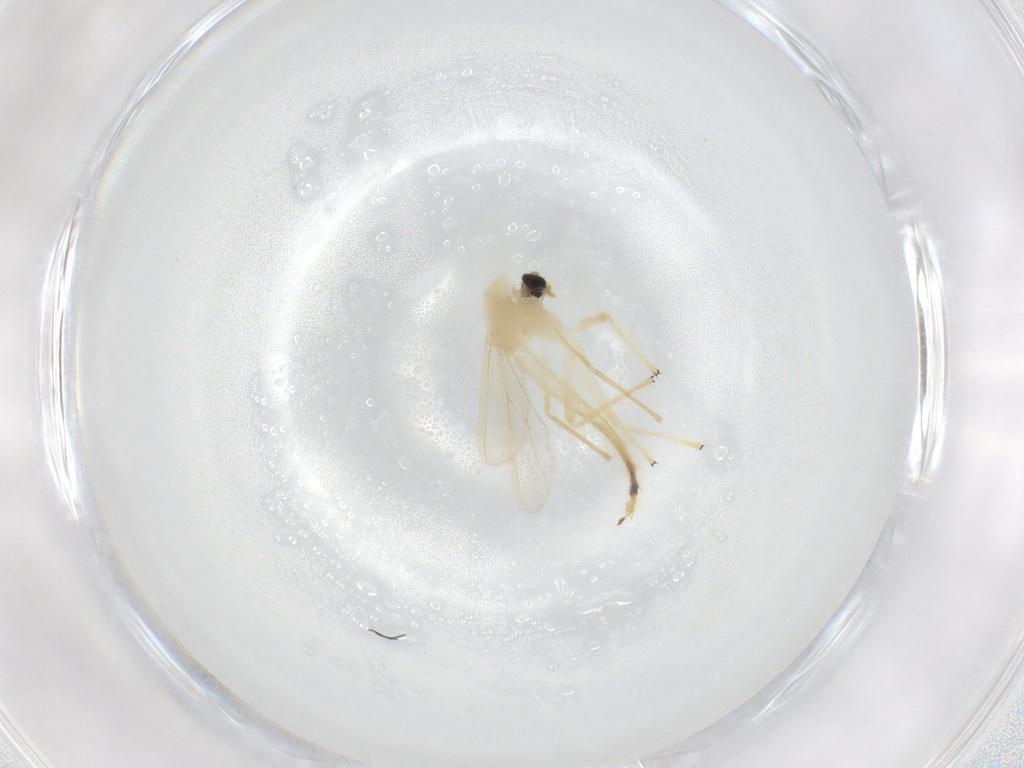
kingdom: Animalia
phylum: Arthropoda
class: Insecta
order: Diptera
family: Chironomidae
